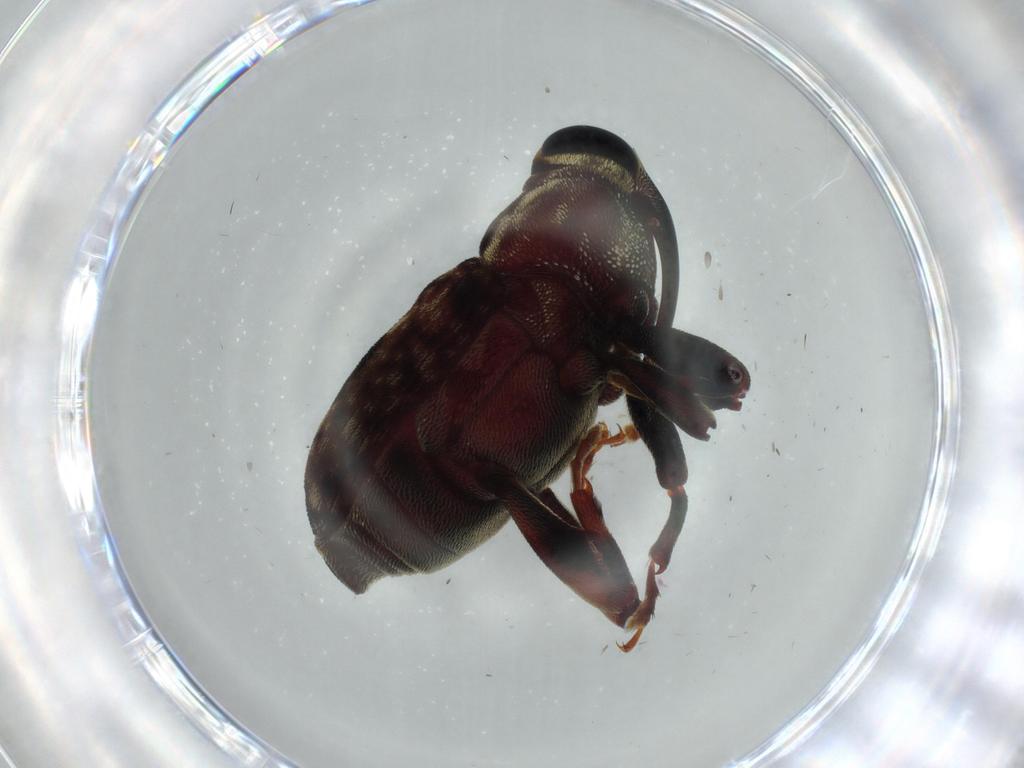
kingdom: Animalia
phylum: Arthropoda
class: Insecta
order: Coleoptera
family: Curculionidae
